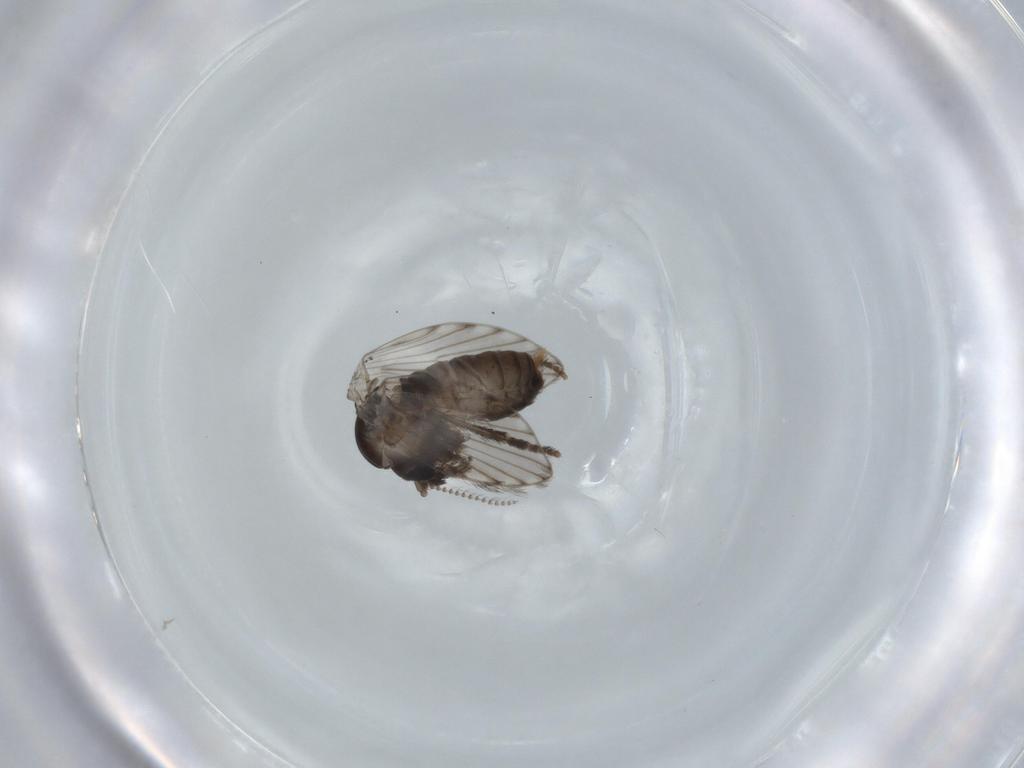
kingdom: Animalia
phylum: Arthropoda
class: Insecta
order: Diptera
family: Psychodidae
